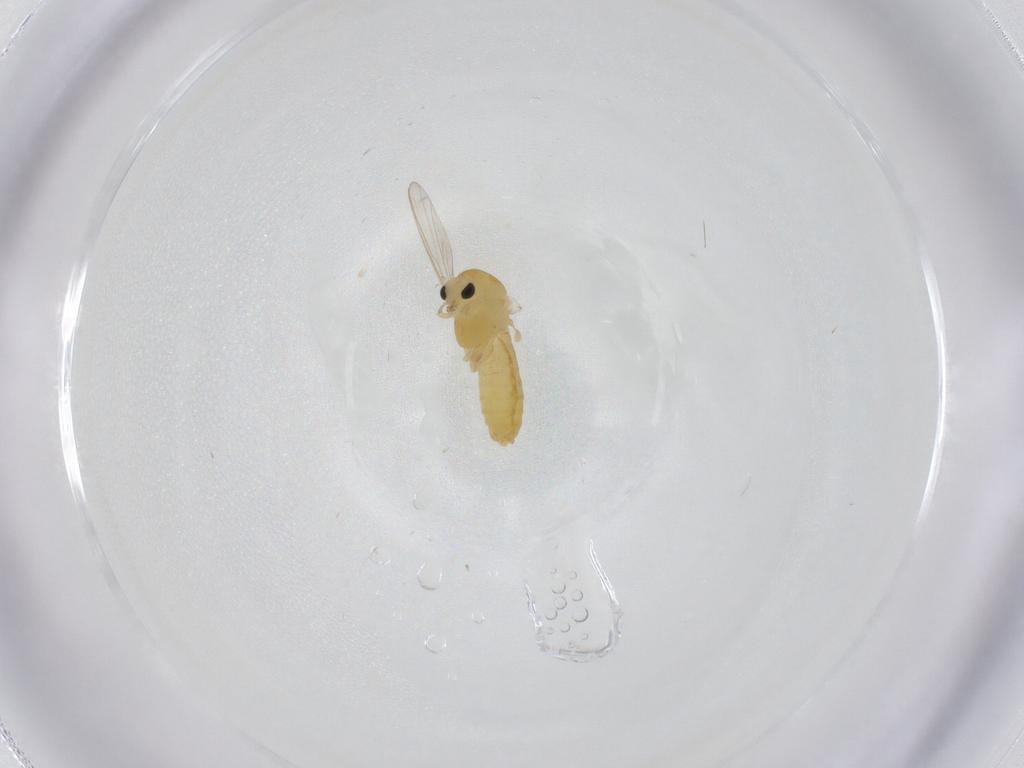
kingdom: Animalia
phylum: Arthropoda
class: Insecta
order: Diptera
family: Chironomidae
